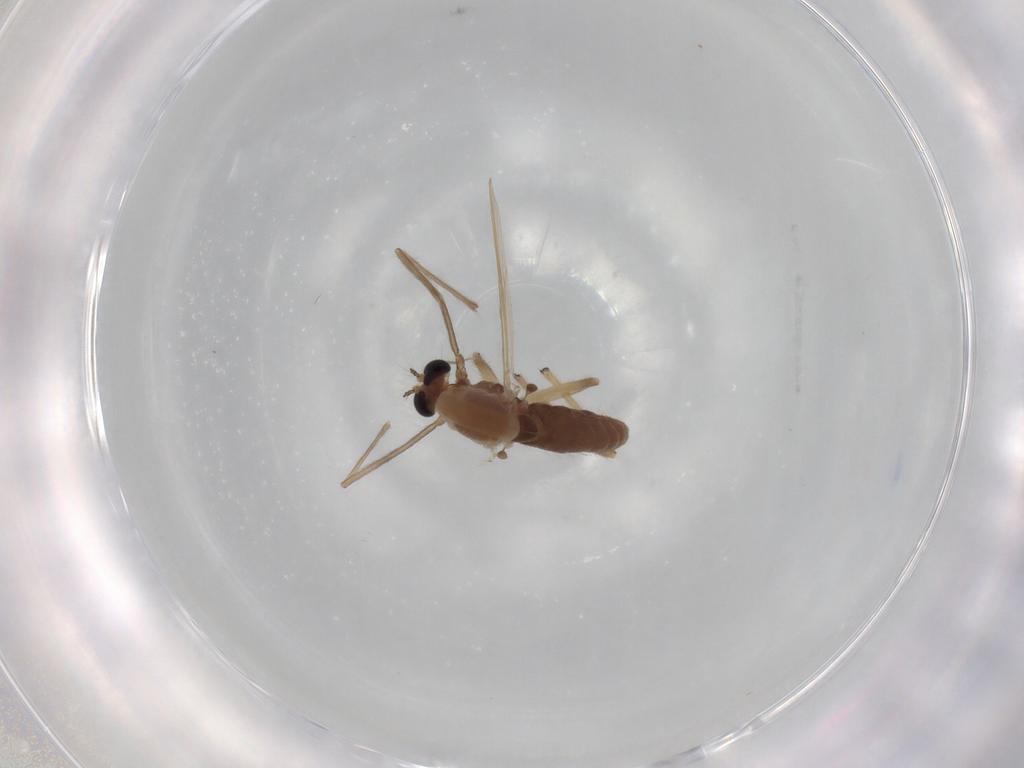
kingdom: Animalia
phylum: Arthropoda
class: Insecta
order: Diptera
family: Chironomidae
